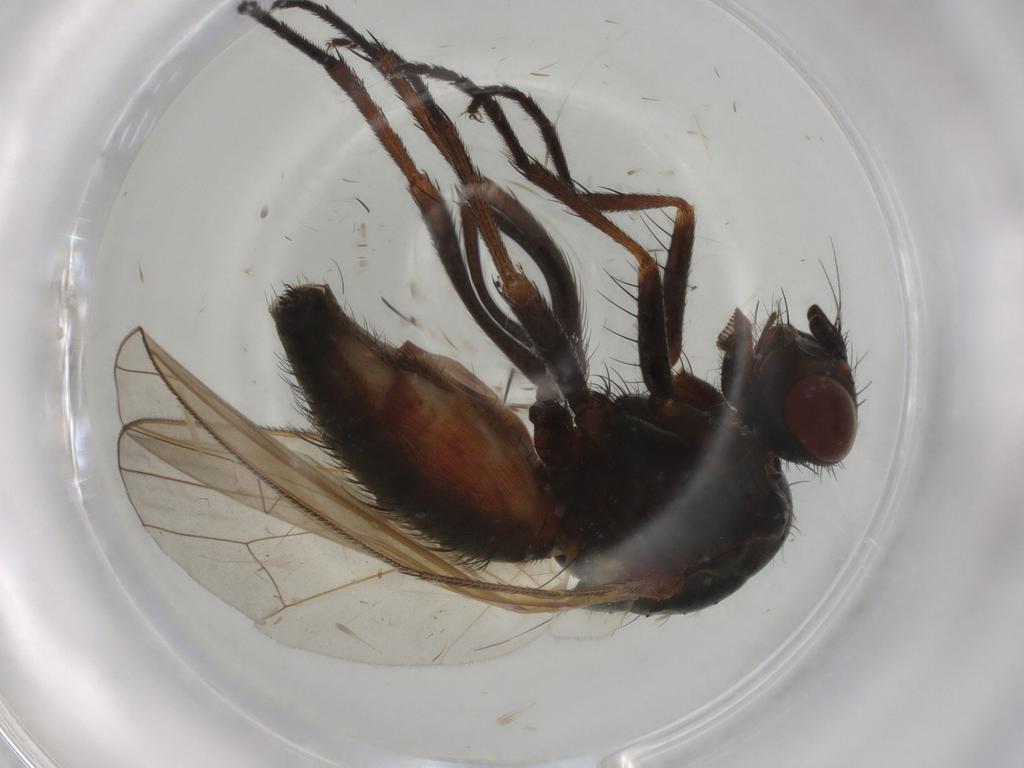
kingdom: Animalia
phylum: Arthropoda
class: Insecta
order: Diptera
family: Anthomyiidae
